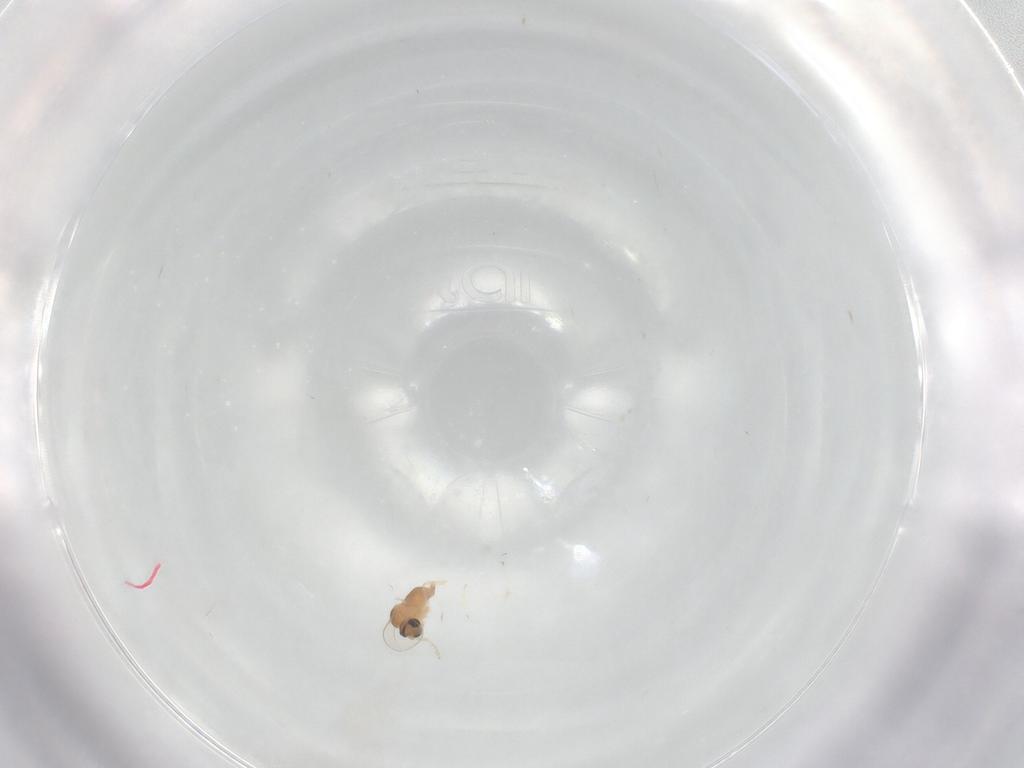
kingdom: Animalia
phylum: Arthropoda
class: Insecta
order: Diptera
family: Cecidomyiidae
